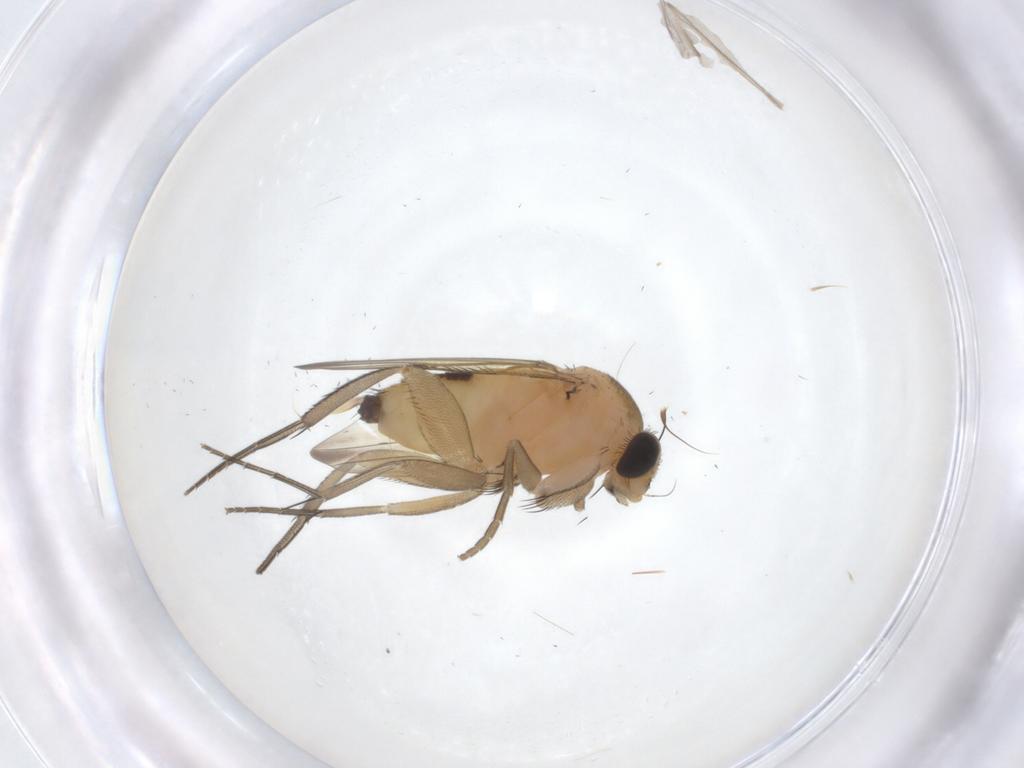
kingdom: Animalia
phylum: Arthropoda
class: Insecta
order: Diptera
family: Phoridae
